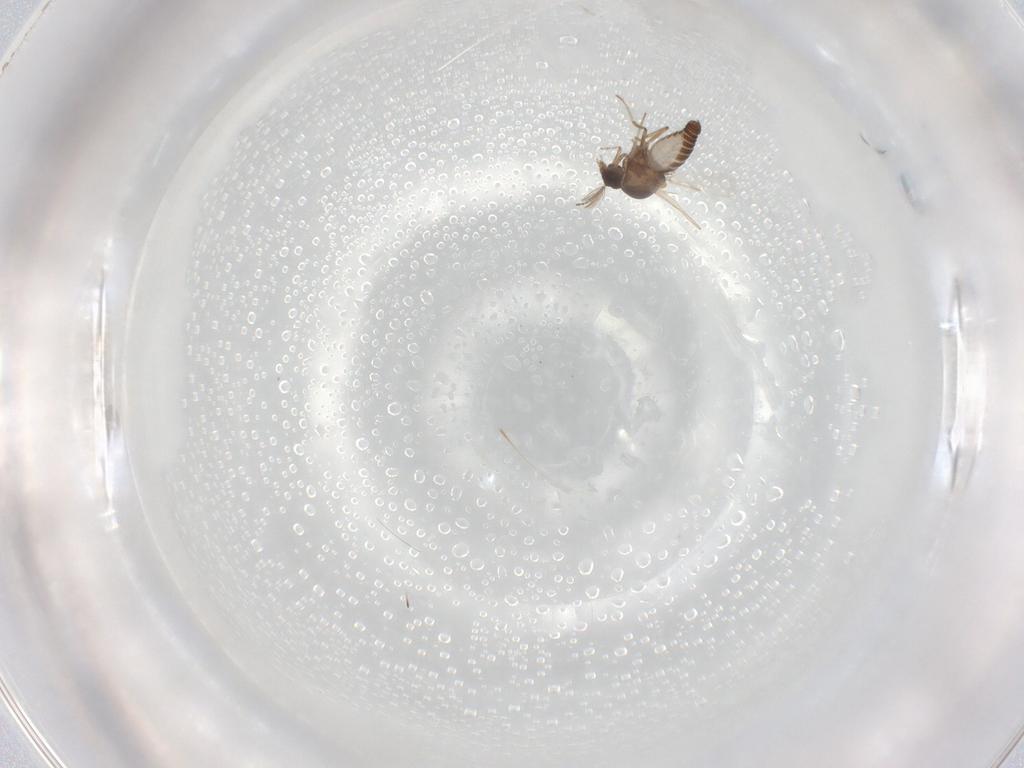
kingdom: Animalia
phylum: Arthropoda
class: Insecta
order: Diptera
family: Ceratopogonidae
